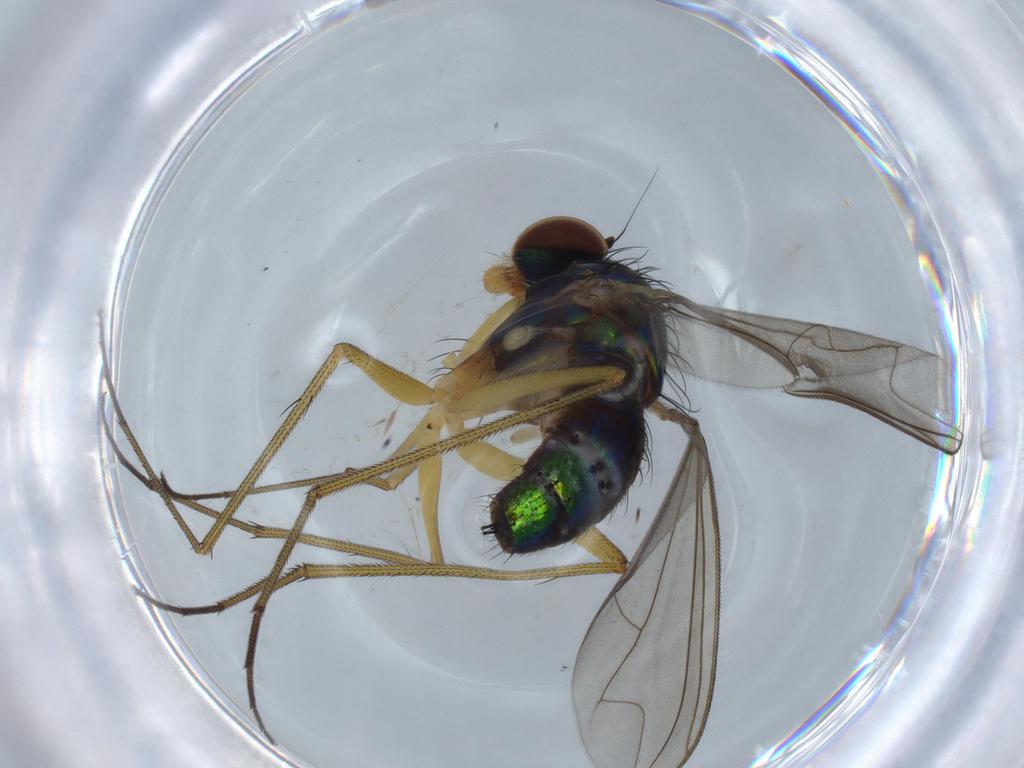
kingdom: Animalia
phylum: Arthropoda
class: Insecta
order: Diptera
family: Dolichopodidae
